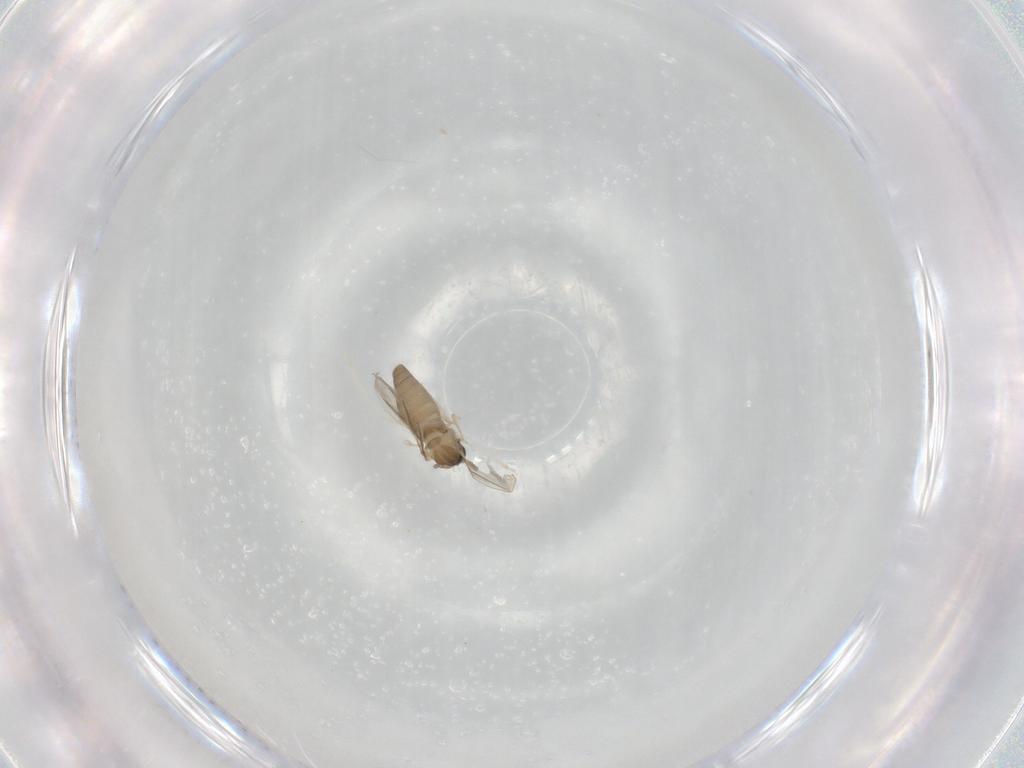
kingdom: Animalia
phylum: Arthropoda
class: Insecta
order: Diptera
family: Cecidomyiidae
